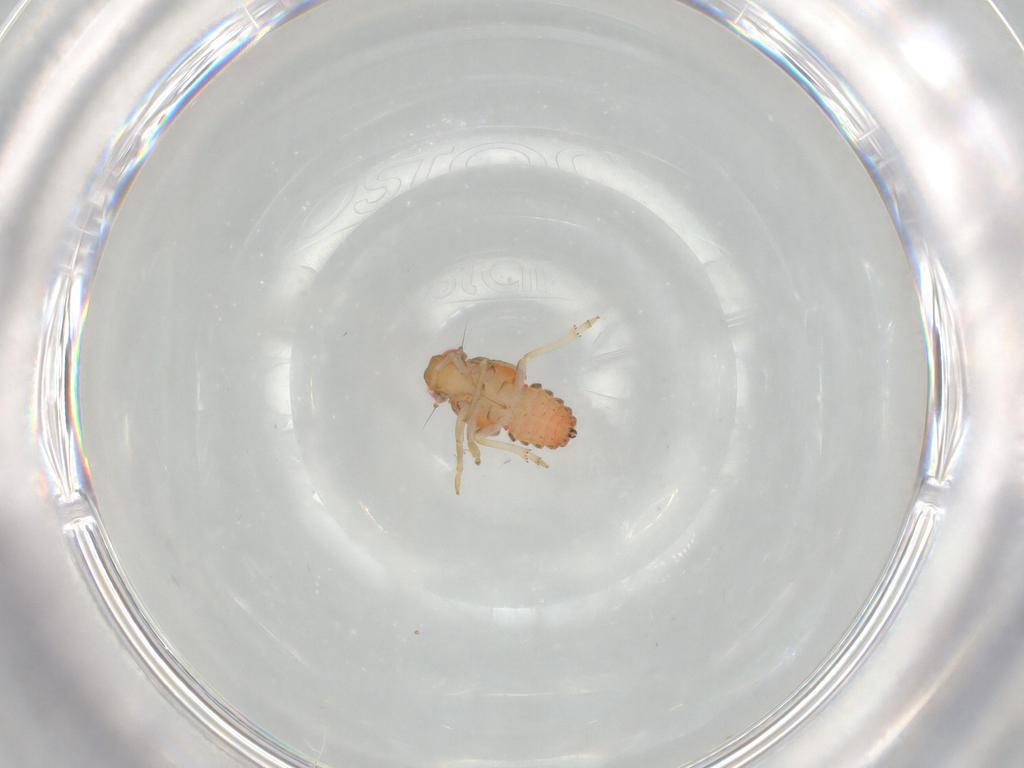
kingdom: Animalia
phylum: Arthropoda
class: Insecta
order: Hemiptera
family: Issidae
